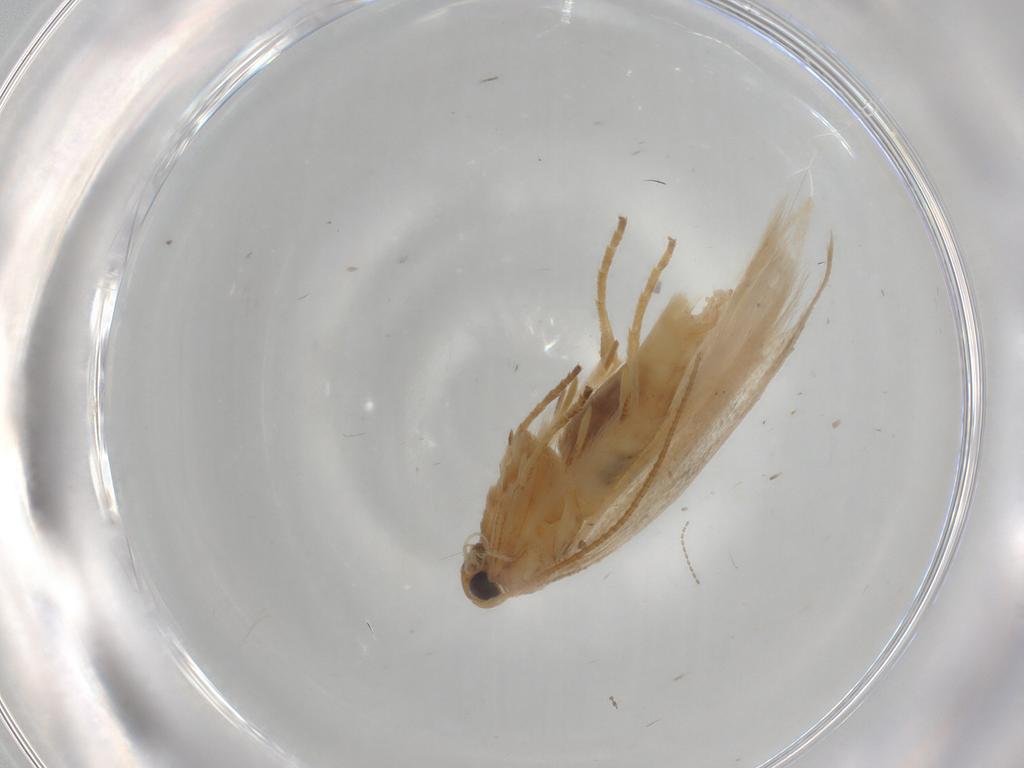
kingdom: Animalia
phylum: Arthropoda
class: Insecta
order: Lepidoptera
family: Gelechiidae
